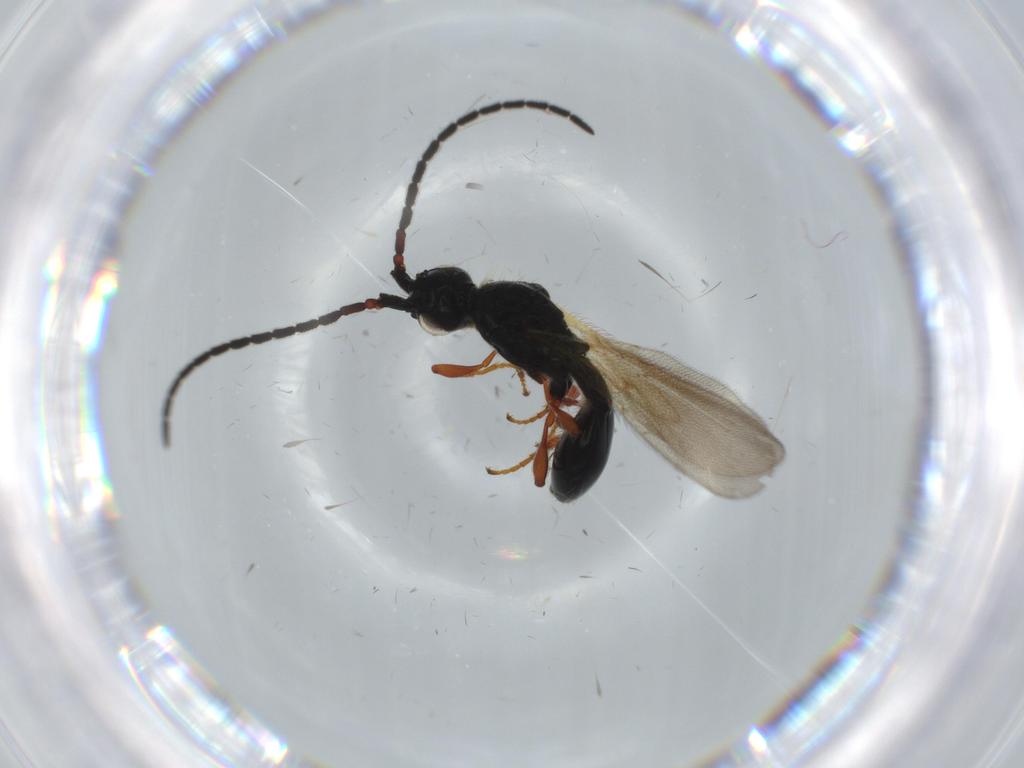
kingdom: Animalia
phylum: Arthropoda
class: Insecta
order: Hymenoptera
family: Diapriidae
